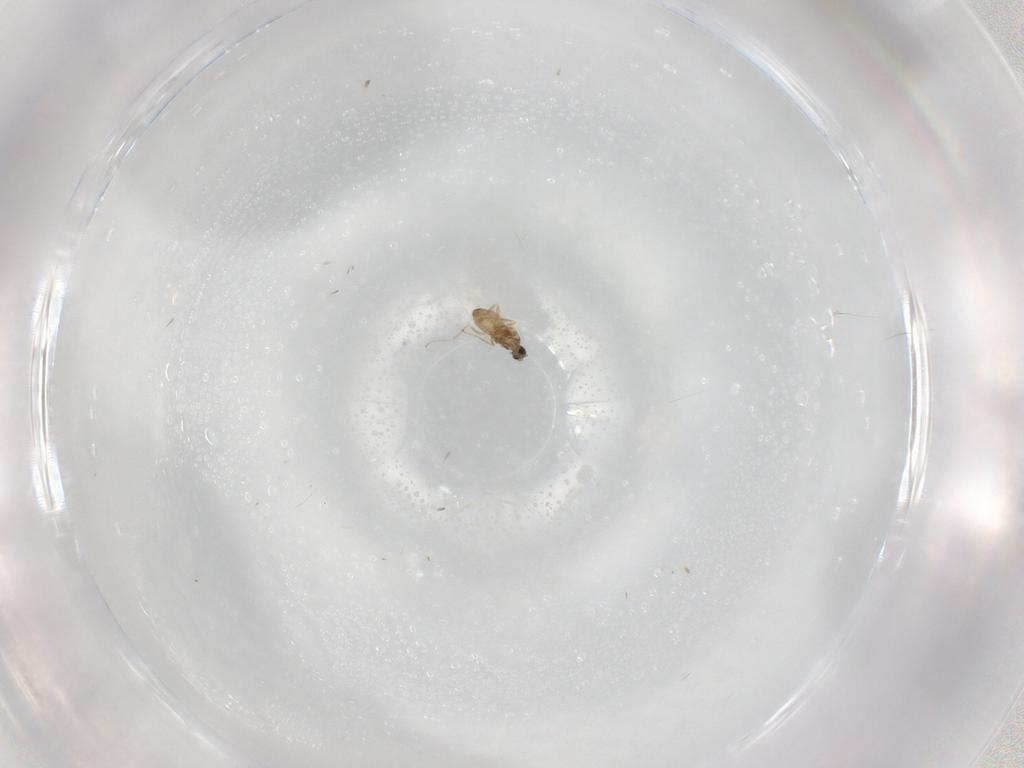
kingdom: Animalia
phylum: Arthropoda
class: Insecta
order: Diptera
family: Cecidomyiidae
